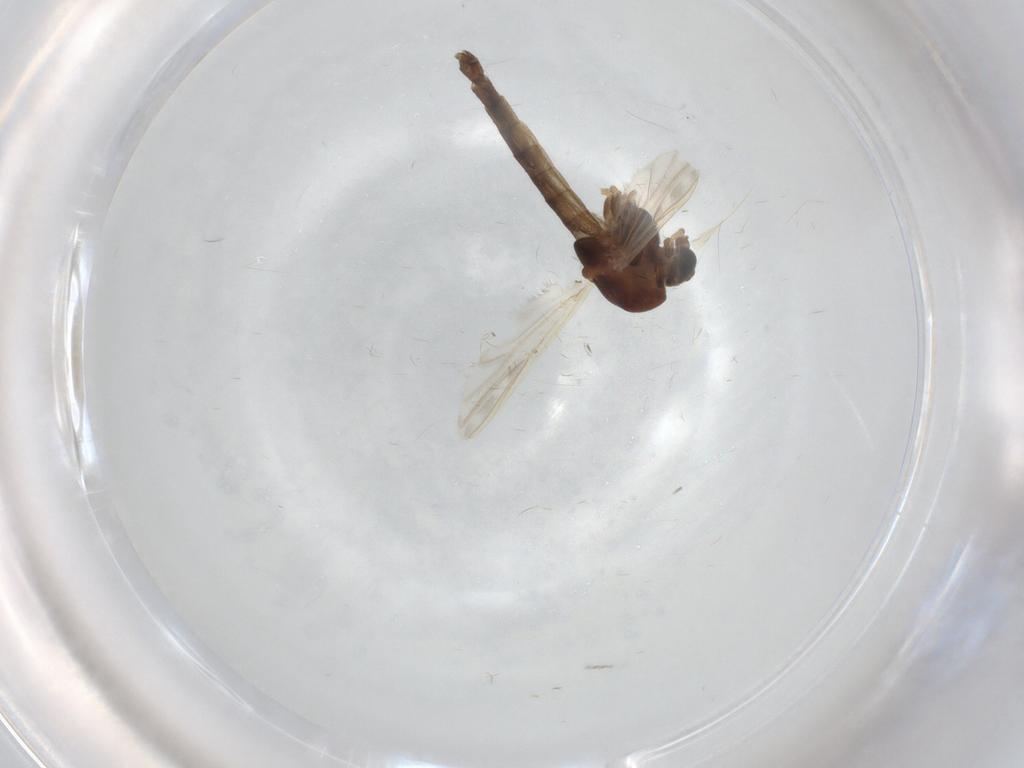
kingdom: Animalia
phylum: Arthropoda
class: Insecta
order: Diptera
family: Chironomidae
